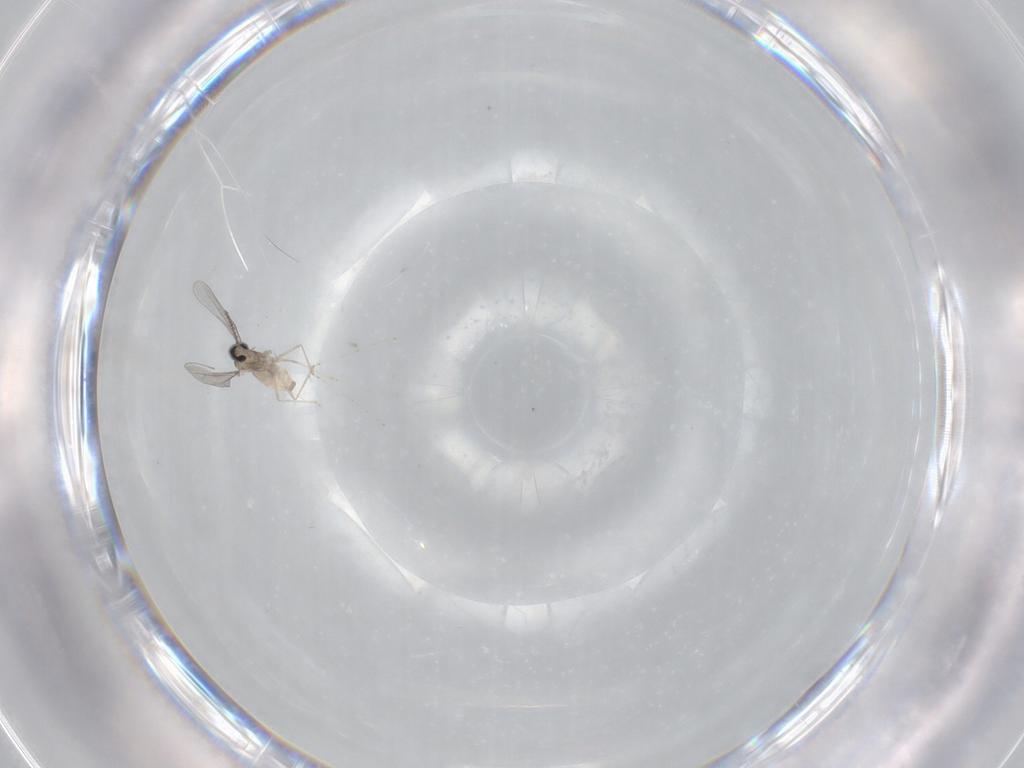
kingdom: Animalia
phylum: Arthropoda
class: Insecta
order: Diptera
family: Cecidomyiidae
